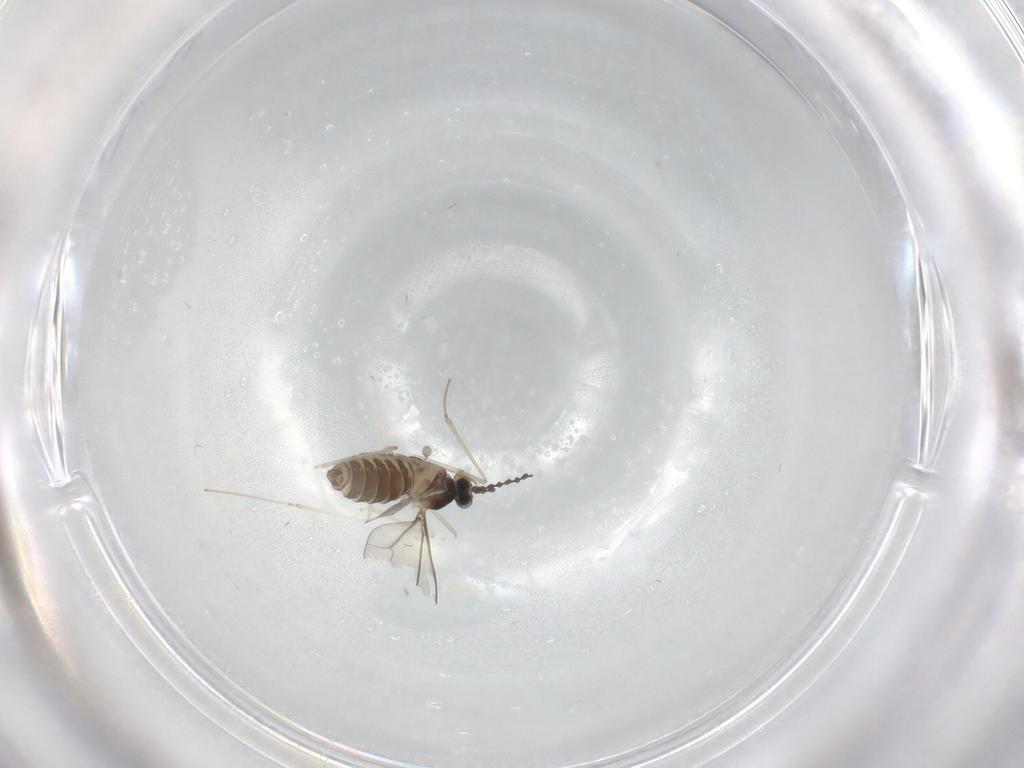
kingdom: Animalia
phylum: Arthropoda
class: Insecta
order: Diptera
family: Cecidomyiidae
